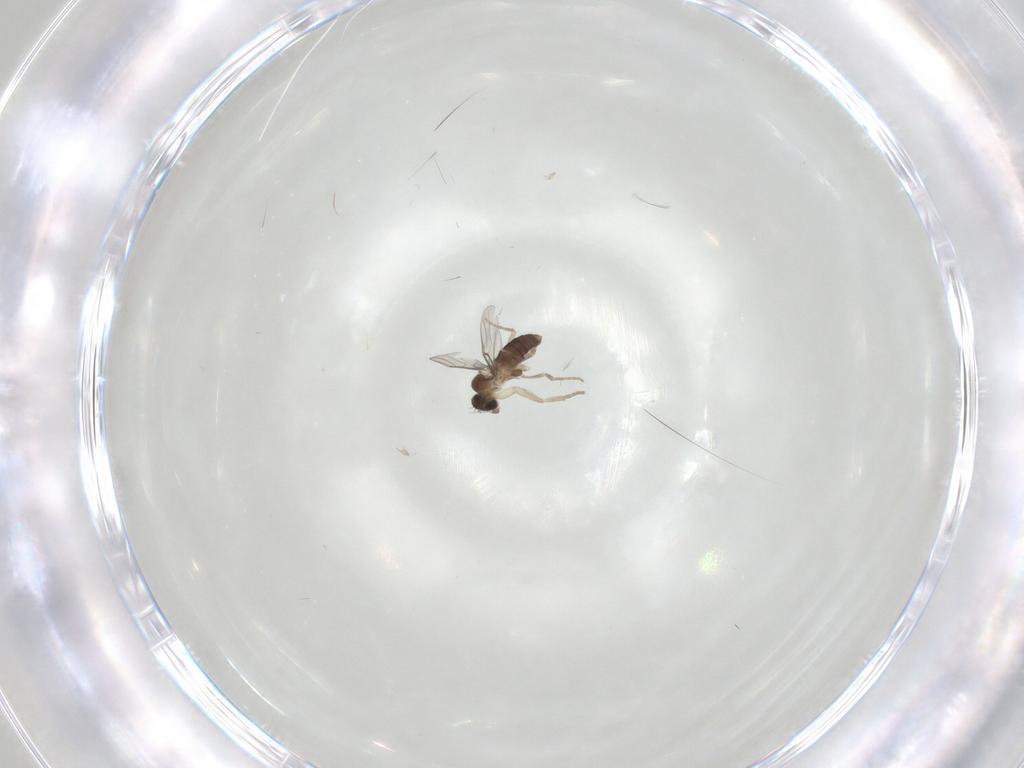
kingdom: Animalia
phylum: Arthropoda
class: Insecta
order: Diptera
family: Phoridae
